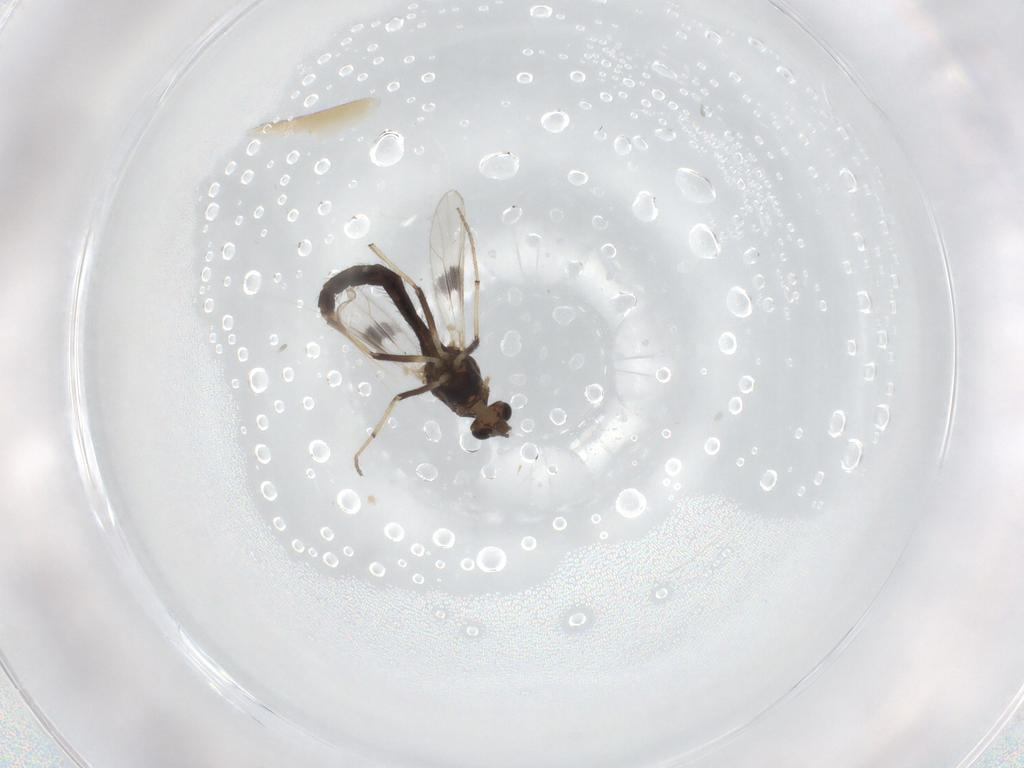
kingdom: Animalia
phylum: Arthropoda
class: Insecta
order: Diptera
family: Chironomidae
